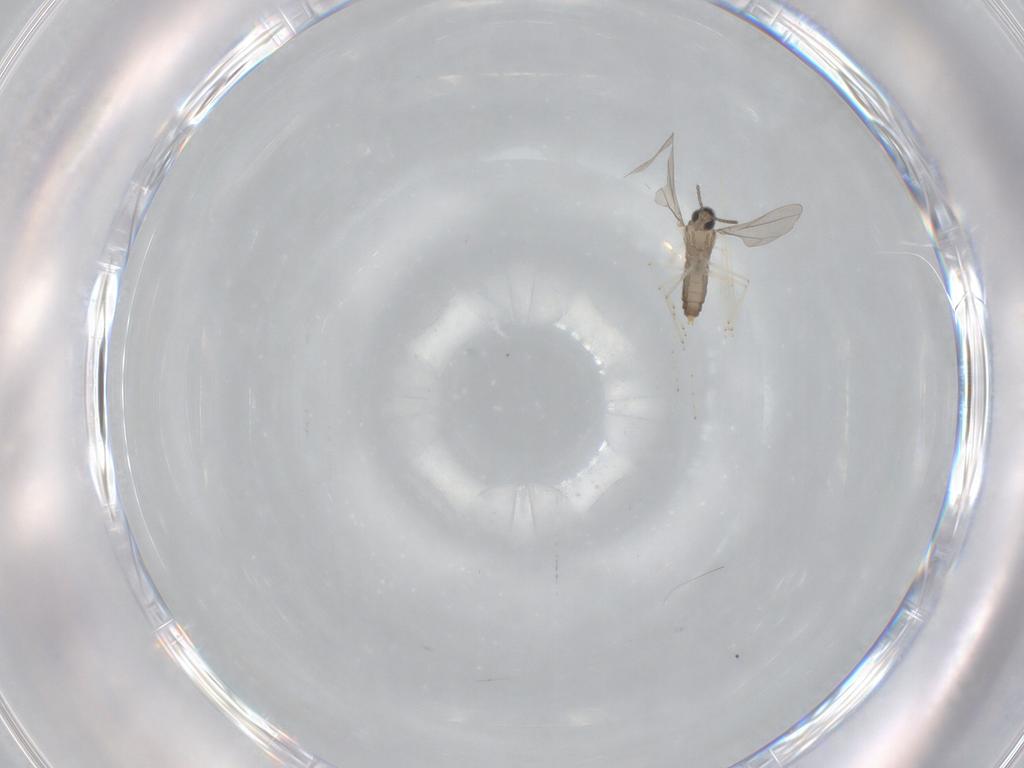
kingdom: Animalia
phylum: Arthropoda
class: Insecta
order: Diptera
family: Cecidomyiidae
